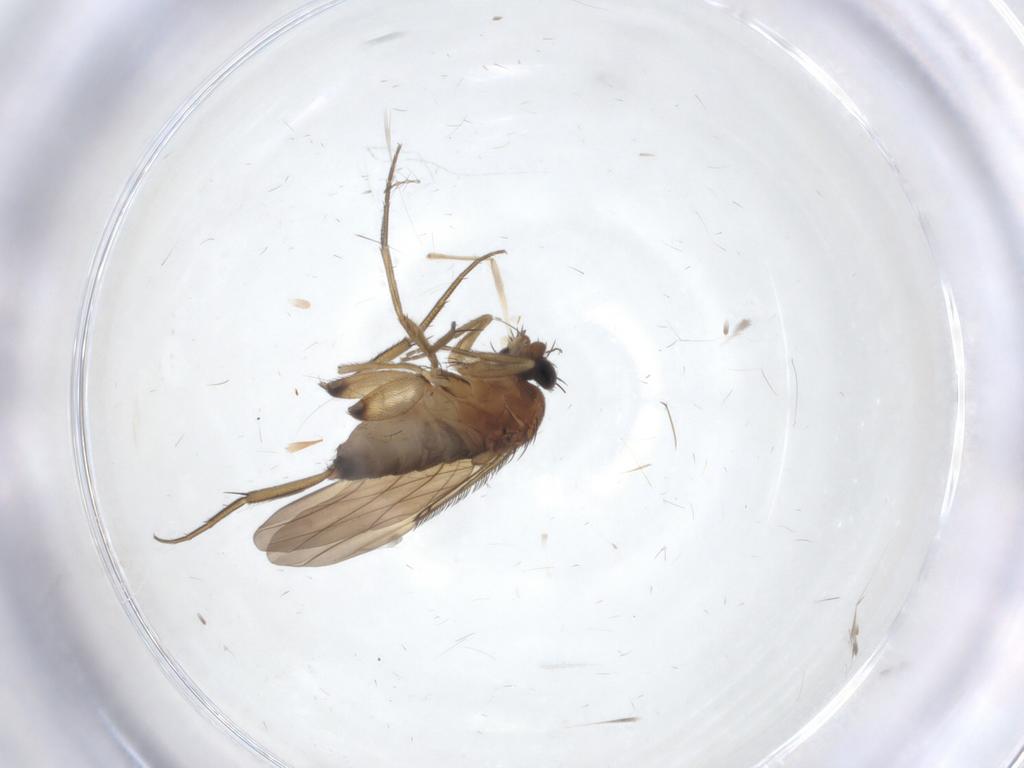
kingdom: Animalia
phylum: Arthropoda
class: Insecta
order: Diptera
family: Chironomidae
